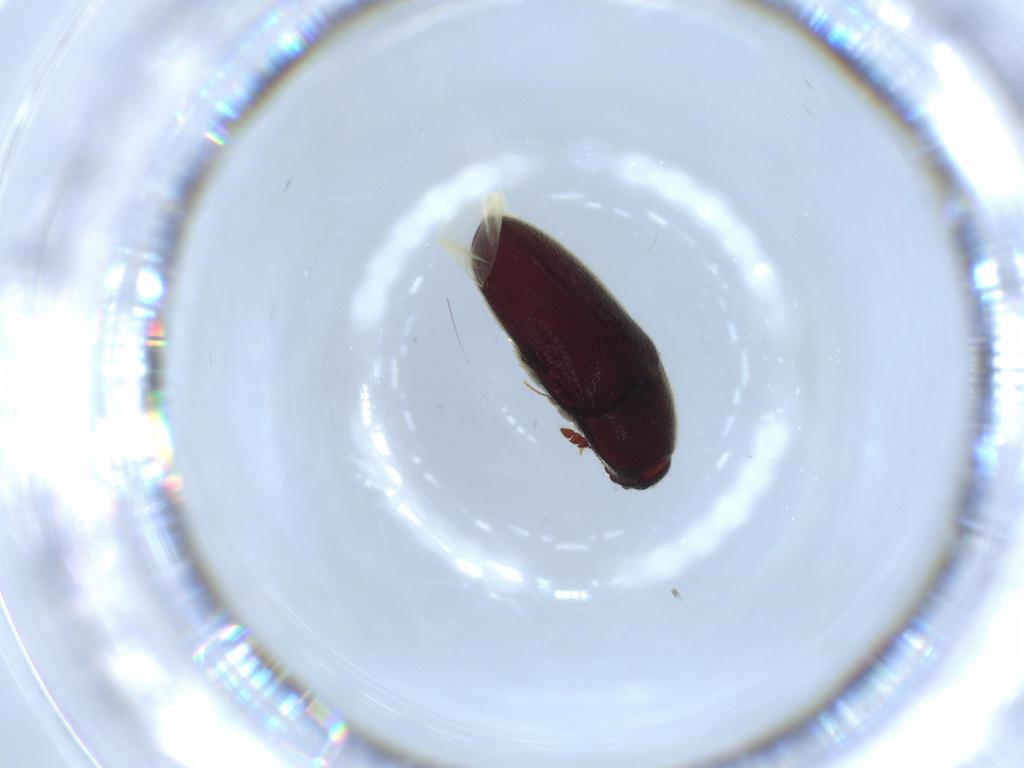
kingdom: Animalia
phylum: Arthropoda
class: Insecta
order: Coleoptera
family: Throscidae
